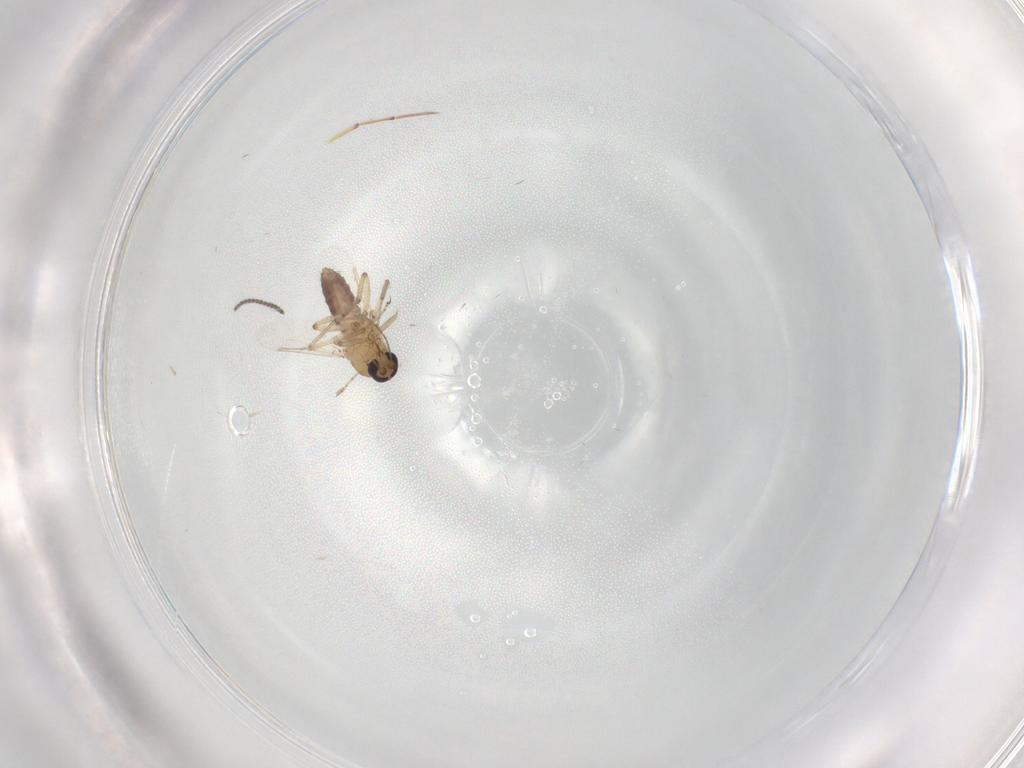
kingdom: Animalia
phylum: Arthropoda
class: Insecta
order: Diptera
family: Ceratopogonidae
